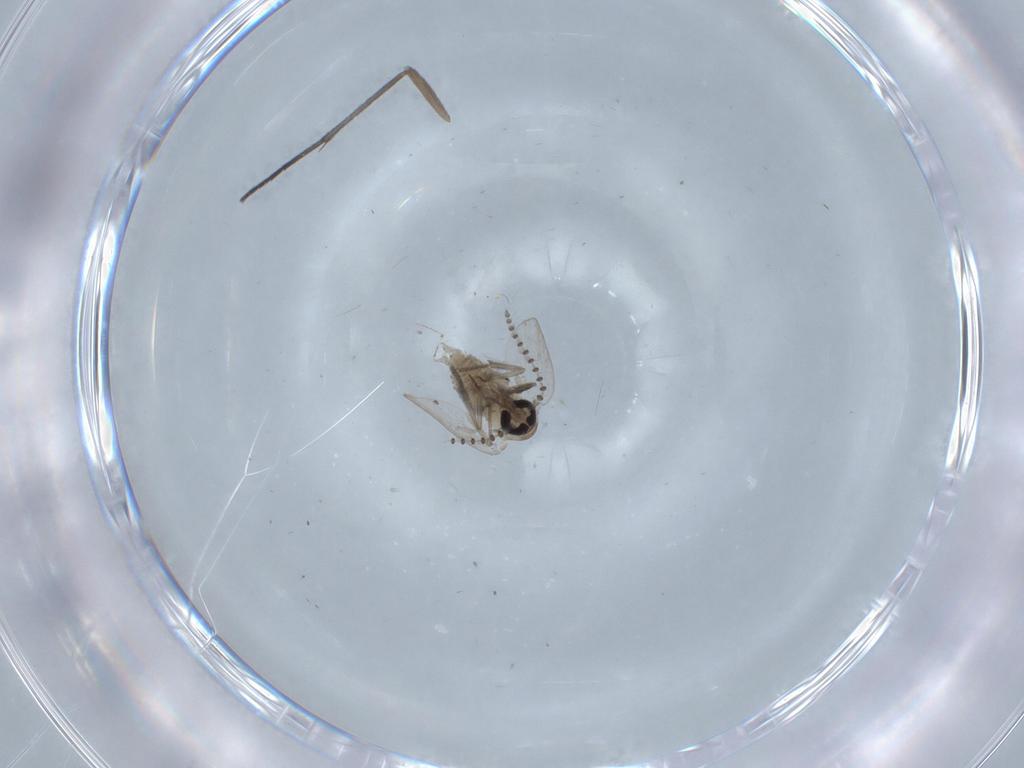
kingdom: Animalia
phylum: Arthropoda
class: Insecta
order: Diptera
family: Psychodidae
